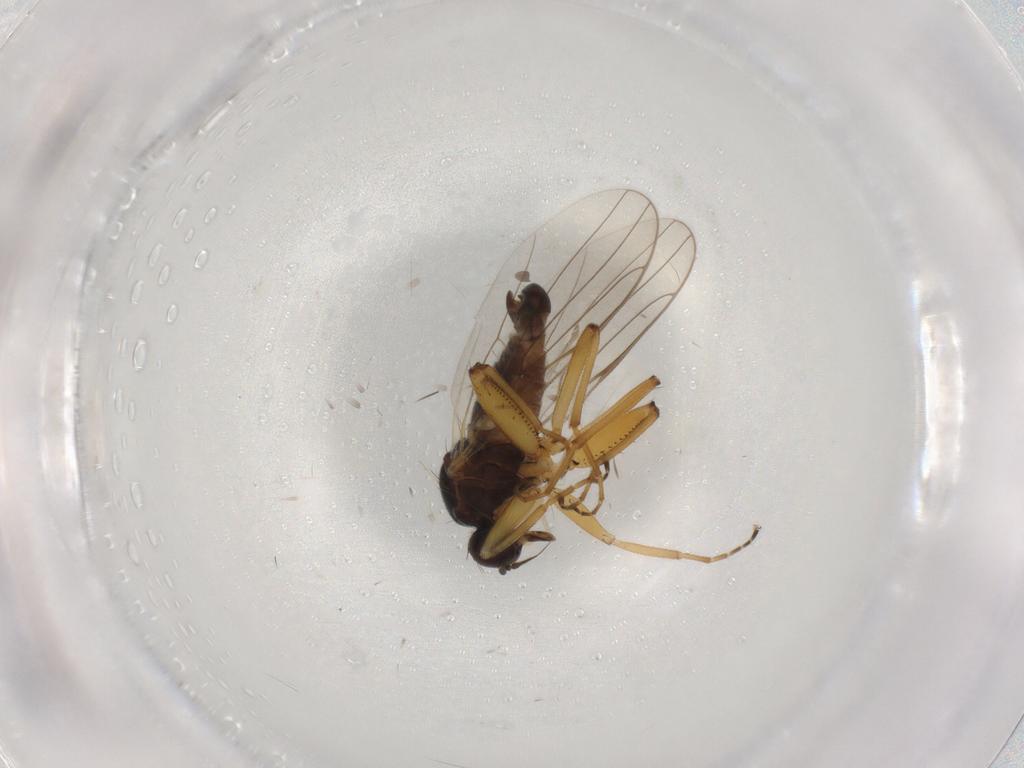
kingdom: Animalia
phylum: Arthropoda
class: Insecta
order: Diptera
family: Hybotidae
